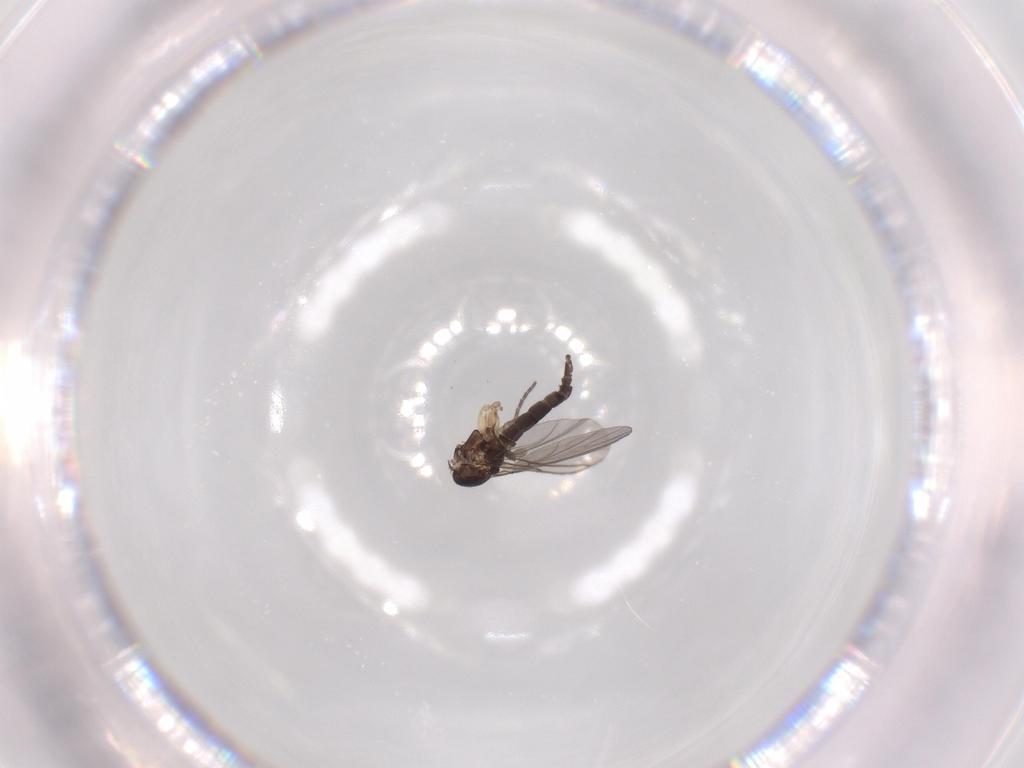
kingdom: Animalia
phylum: Arthropoda
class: Insecta
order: Diptera
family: Sciaridae
